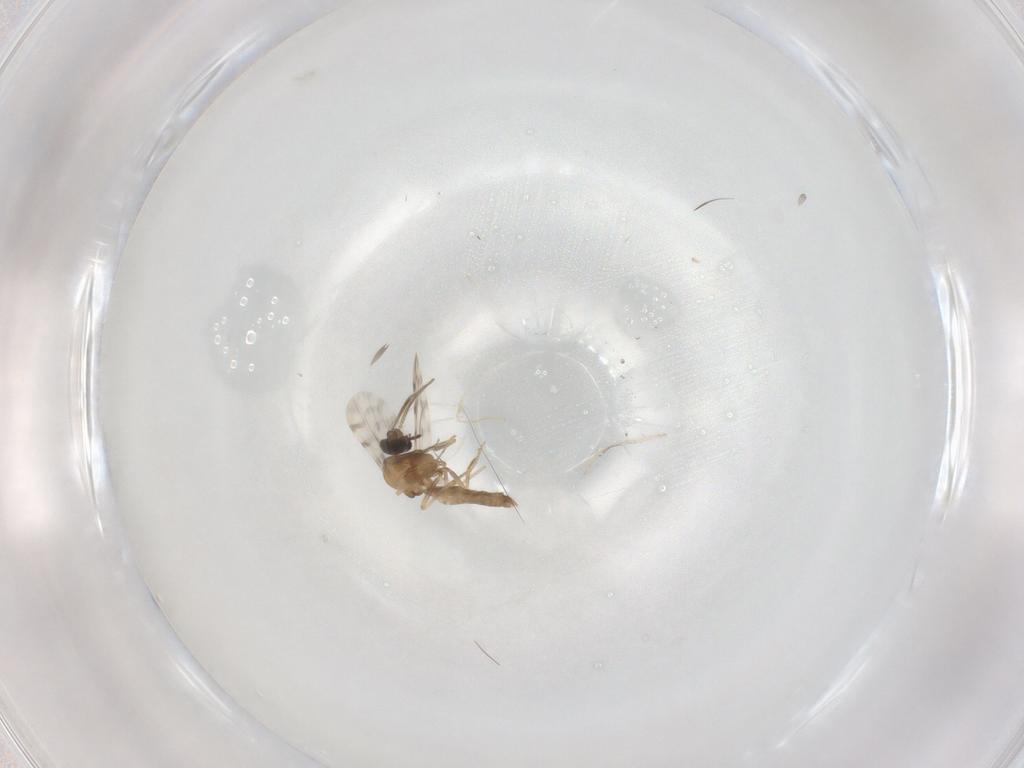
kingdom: Animalia
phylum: Arthropoda
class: Insecta
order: Diptera
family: Ceratopogonidae
